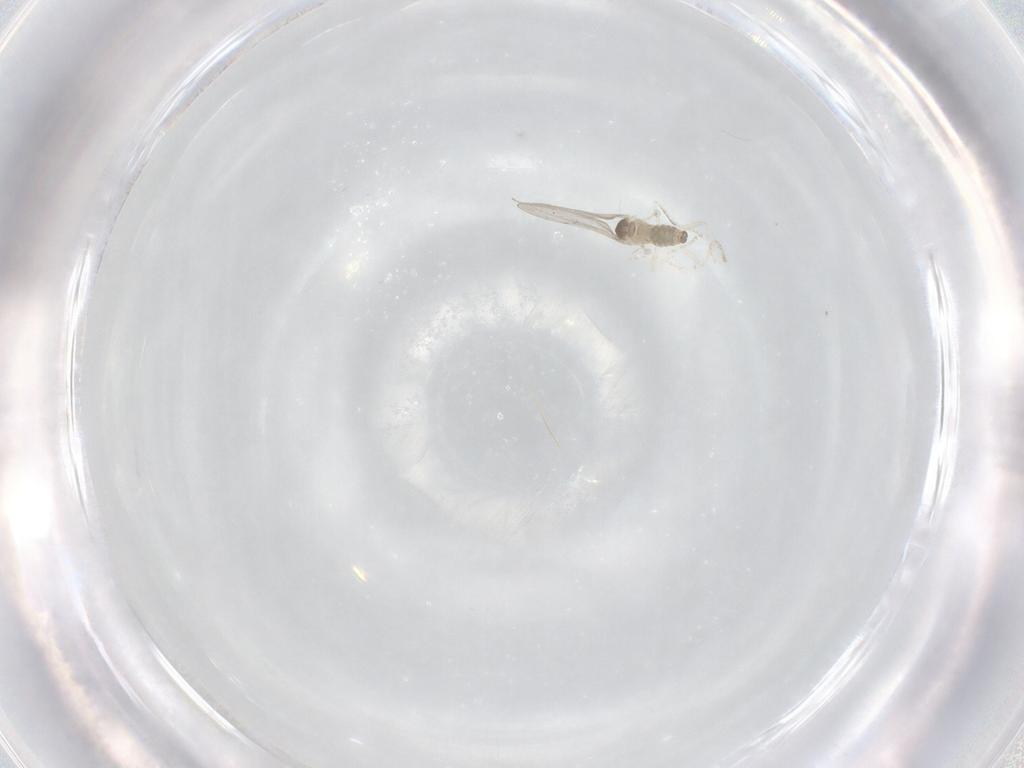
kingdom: Animalia
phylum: Arthropoda
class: Insecta
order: Diptera
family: Cecidomyiidae
